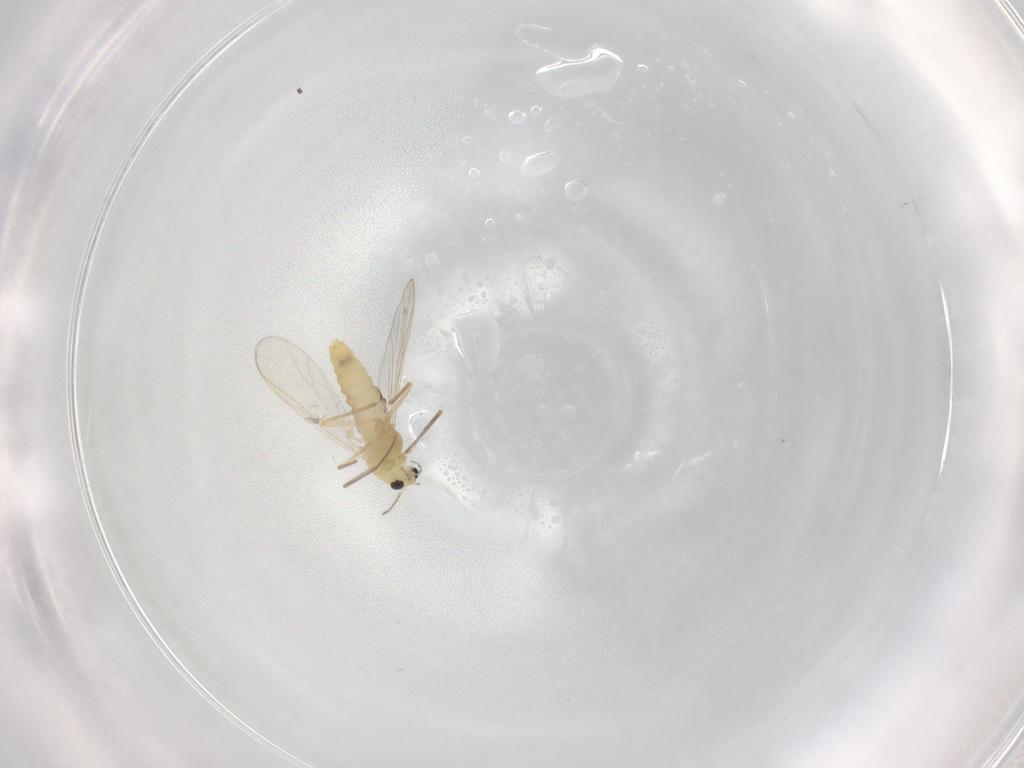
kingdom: Animalia
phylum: Arthropoda
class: Insecta
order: Diptera
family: Chironomidae
